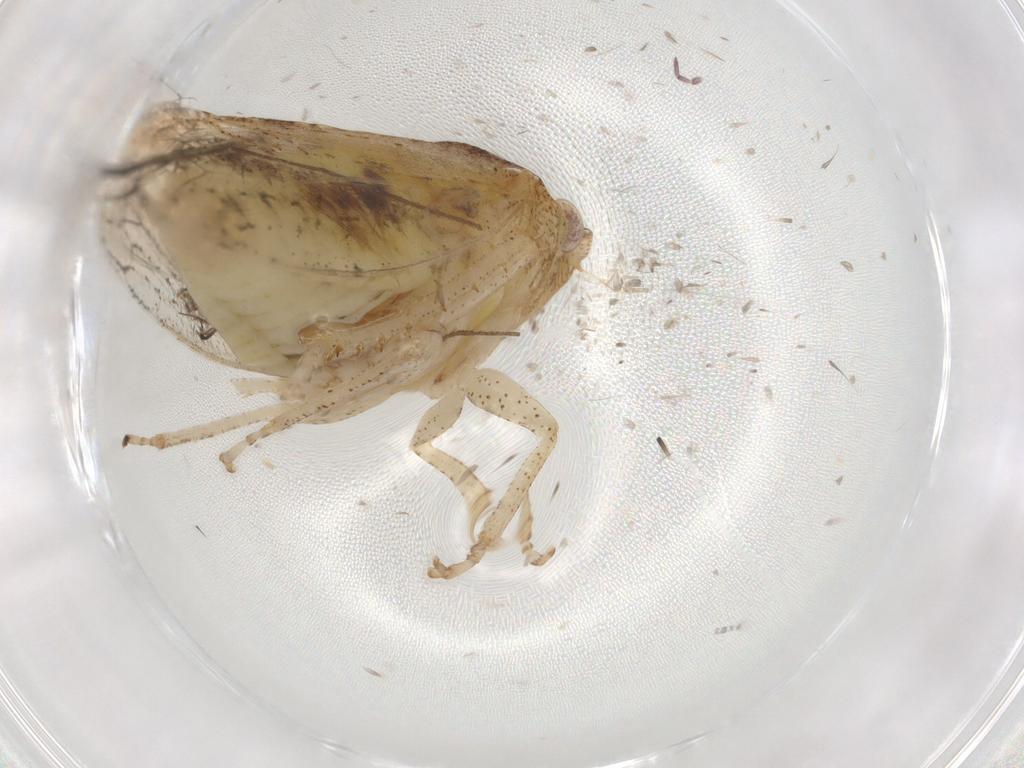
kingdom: Animalia
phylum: Arthropoda
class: Insecta
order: Hemiptera
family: Cicadellidae
